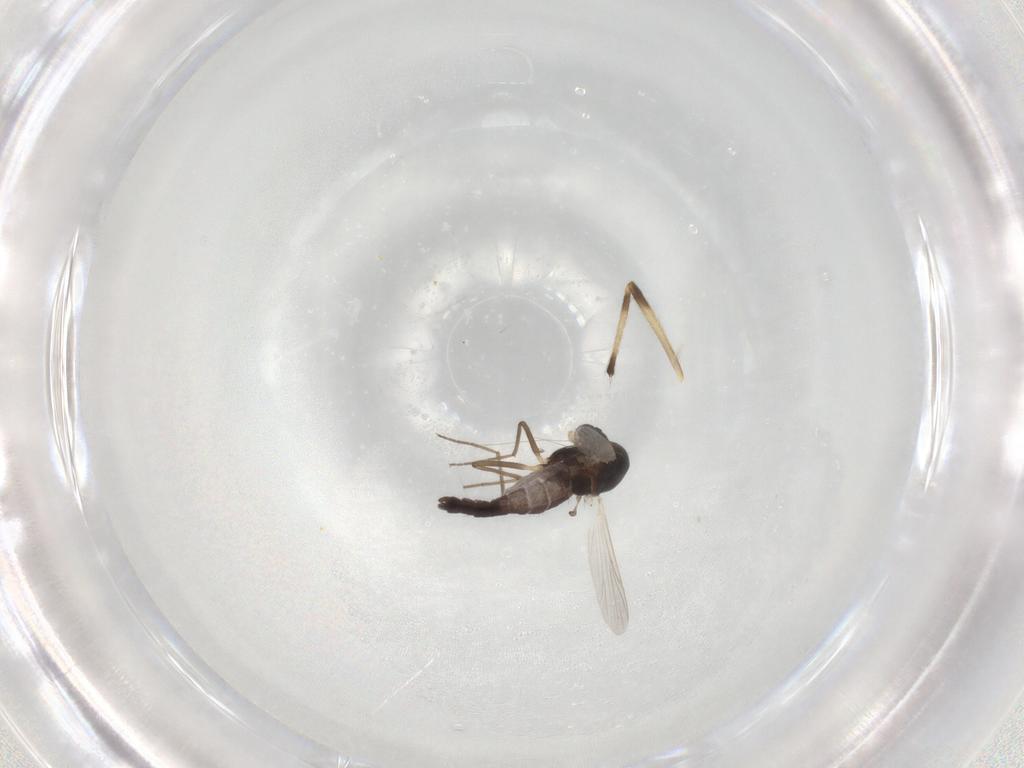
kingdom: Animalia
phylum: Arthropoda
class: Insecta
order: Diptera
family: Chironomidae
